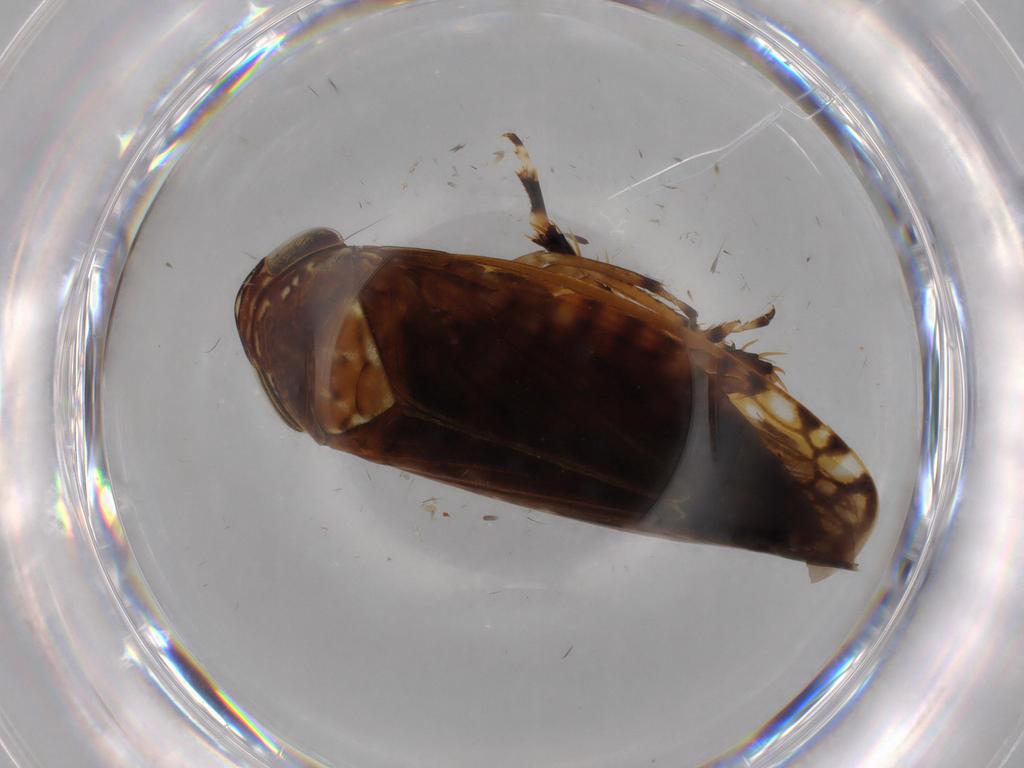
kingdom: Animalia
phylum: Arthropoda
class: Insecta
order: Hemiptera
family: Cicadellidae
